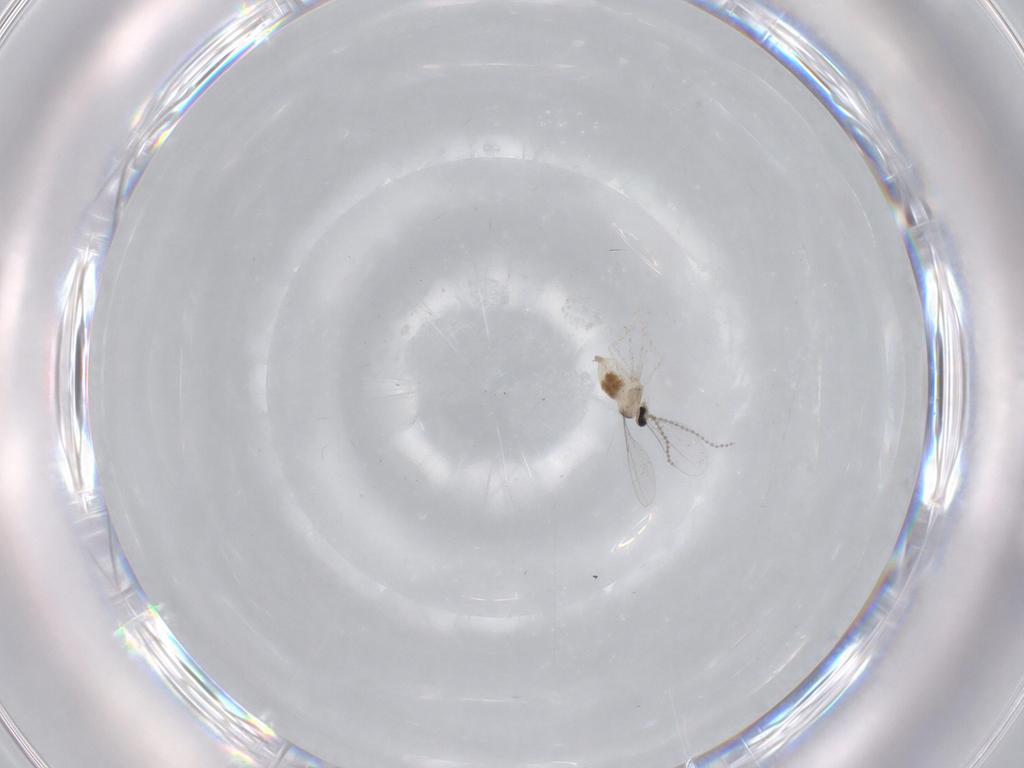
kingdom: Animalia
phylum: Arthropoda
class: Insecta
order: Diptera
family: Cecidomyiidae
